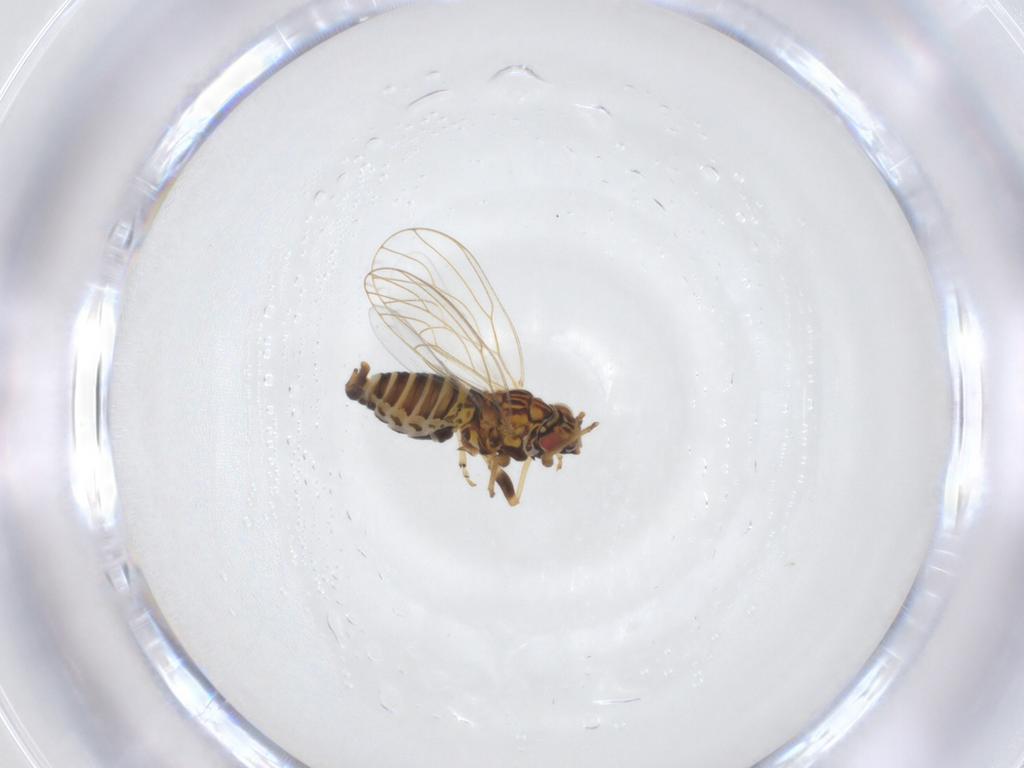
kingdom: Animalia
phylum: Arthropoda
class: Insecta
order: Hemiptera
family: Psylloidea_incertae_sedis
